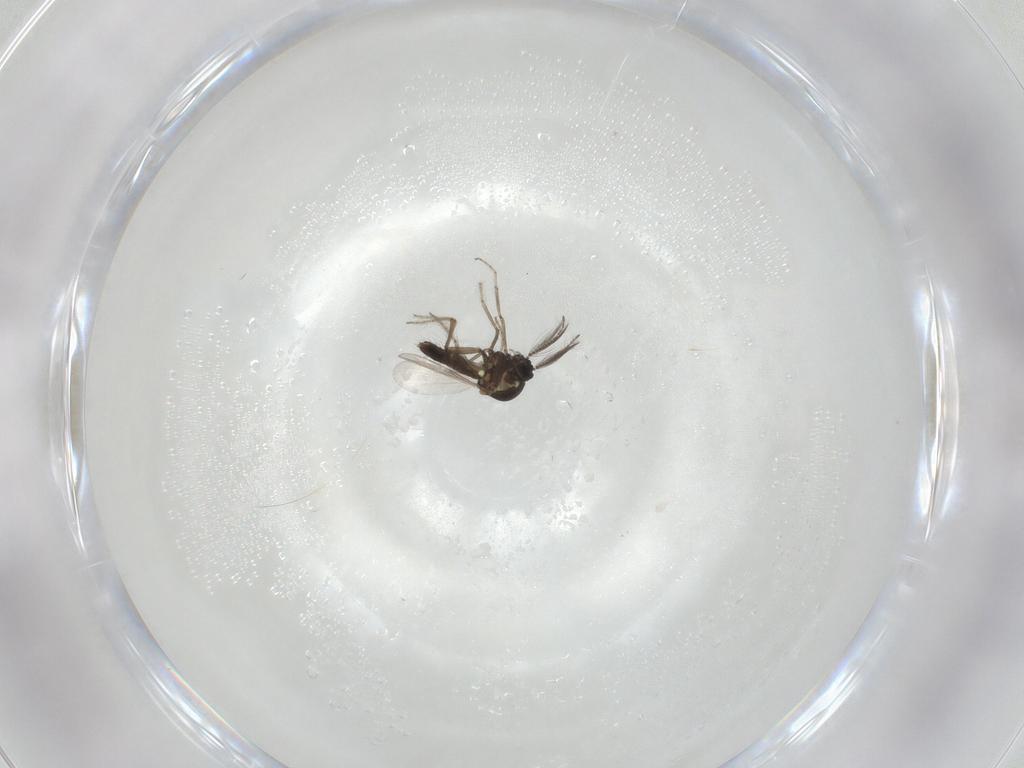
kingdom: Animalia
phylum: Arthropoda
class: Insecta
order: Diptera
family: Ceratopogonidae
